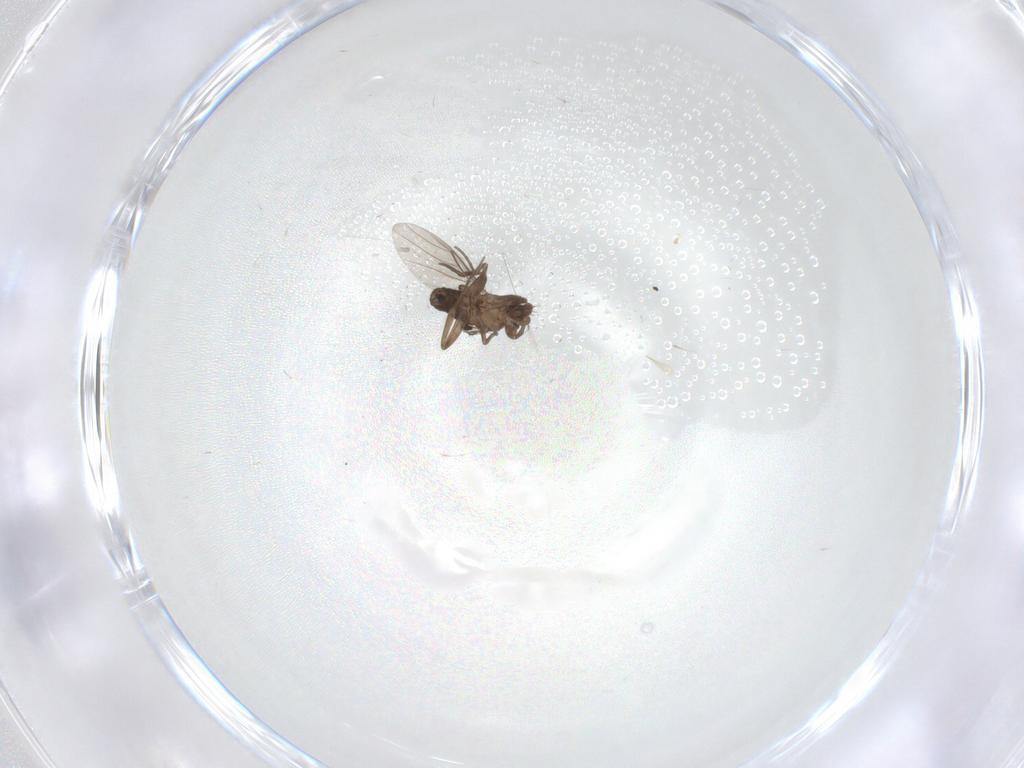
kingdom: Animalia
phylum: Arthropoda
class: Insecta
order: Diptera
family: Phoridae
